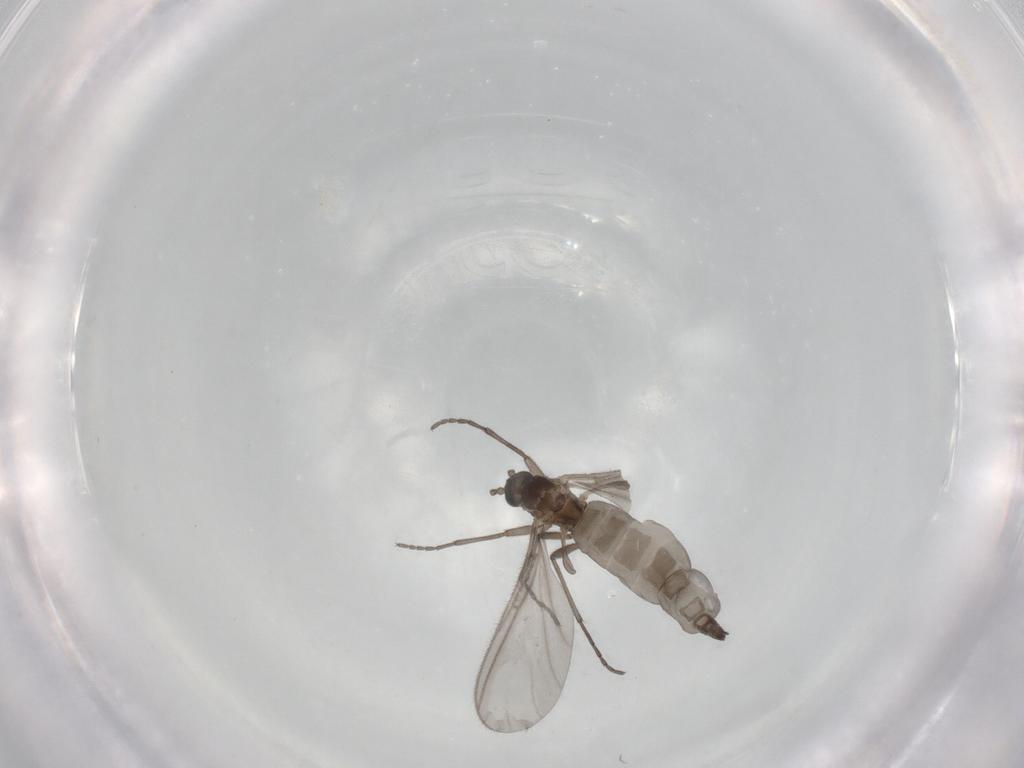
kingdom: Animalia
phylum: Arthropoda
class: Insecta
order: Diptera
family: Sciaridae
